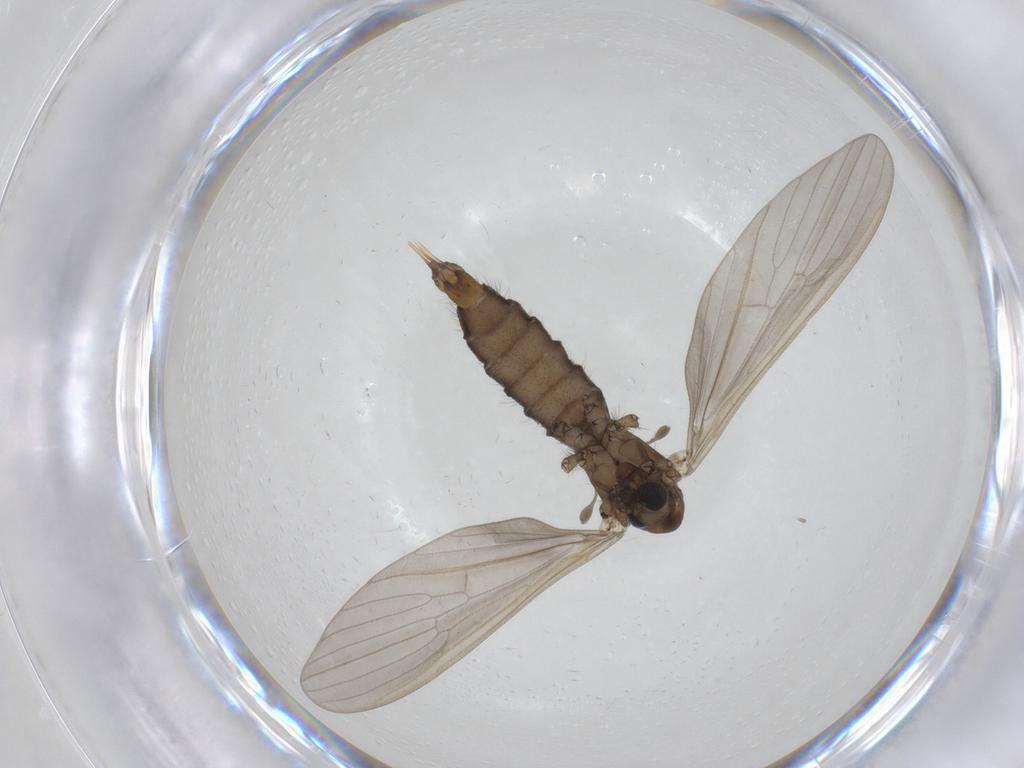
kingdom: Animalia
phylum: Arthropoda
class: Insecta
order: Diptera
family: Limoniidae
